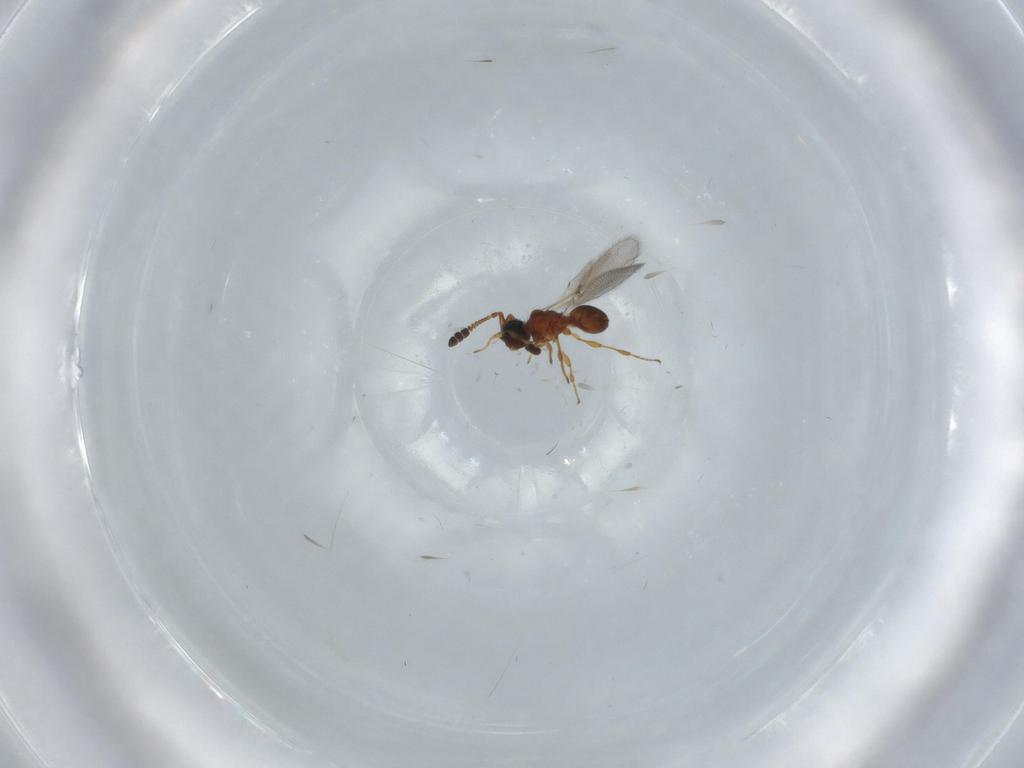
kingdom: Animalia
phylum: Arthropoda
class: Insecta
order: Hymenoptera
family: Diapriidae
